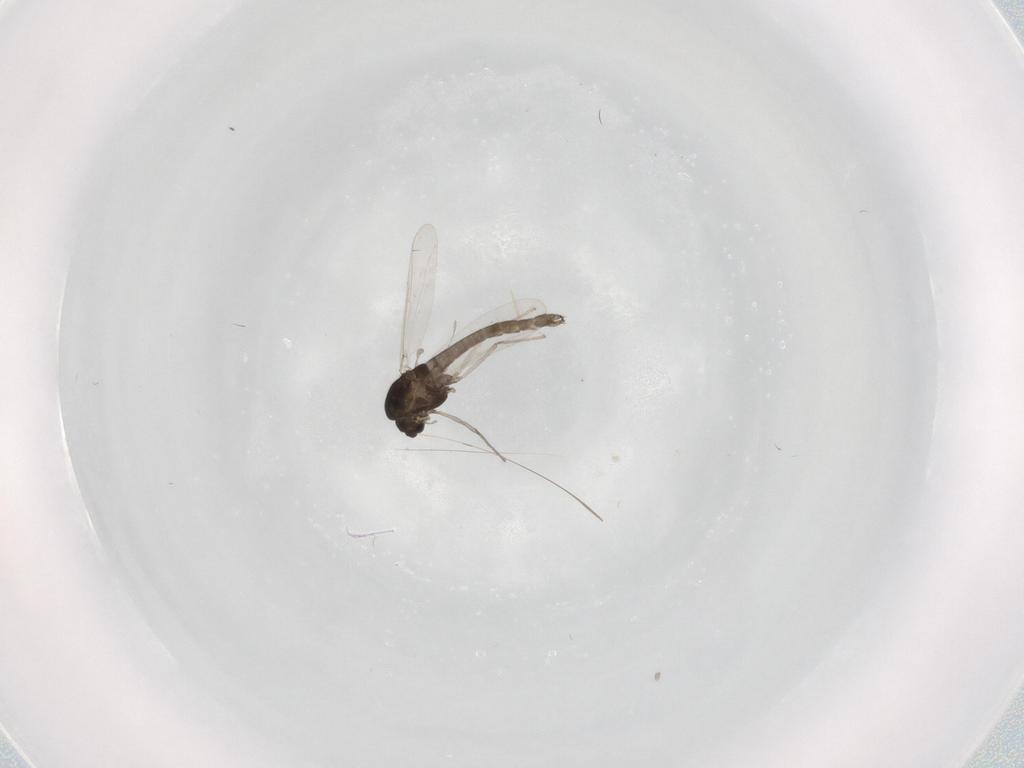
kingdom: Animalia
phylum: Arthropoda
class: Insecta
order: Diptera
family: Chironomidae
